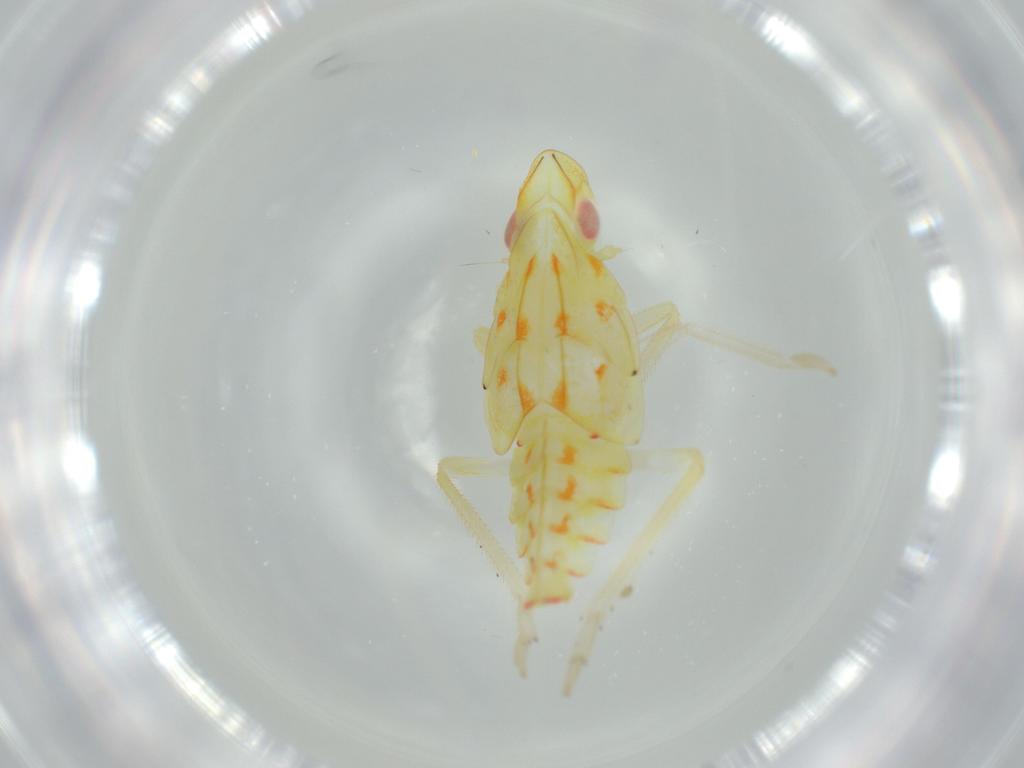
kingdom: Animalia
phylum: Arthropoda
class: Insecta
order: Hemiptera
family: Tropiduchidae
